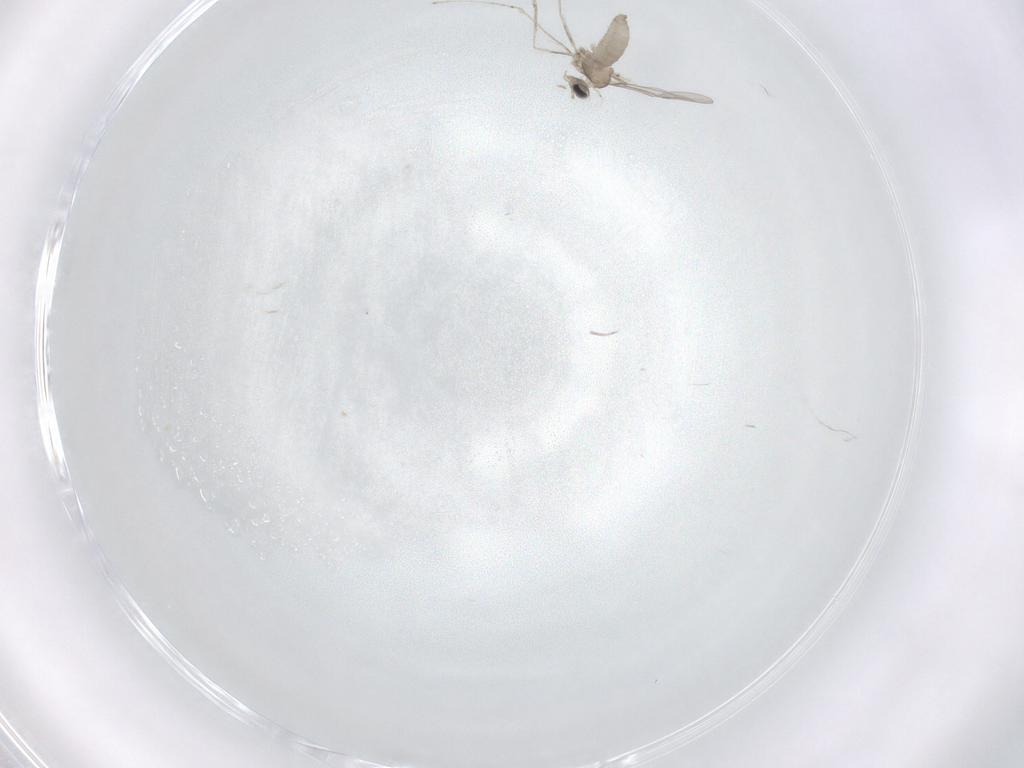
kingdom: Animalia
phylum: Arthropoda
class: Insecta
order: Diptera
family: Cecidomyiidae
